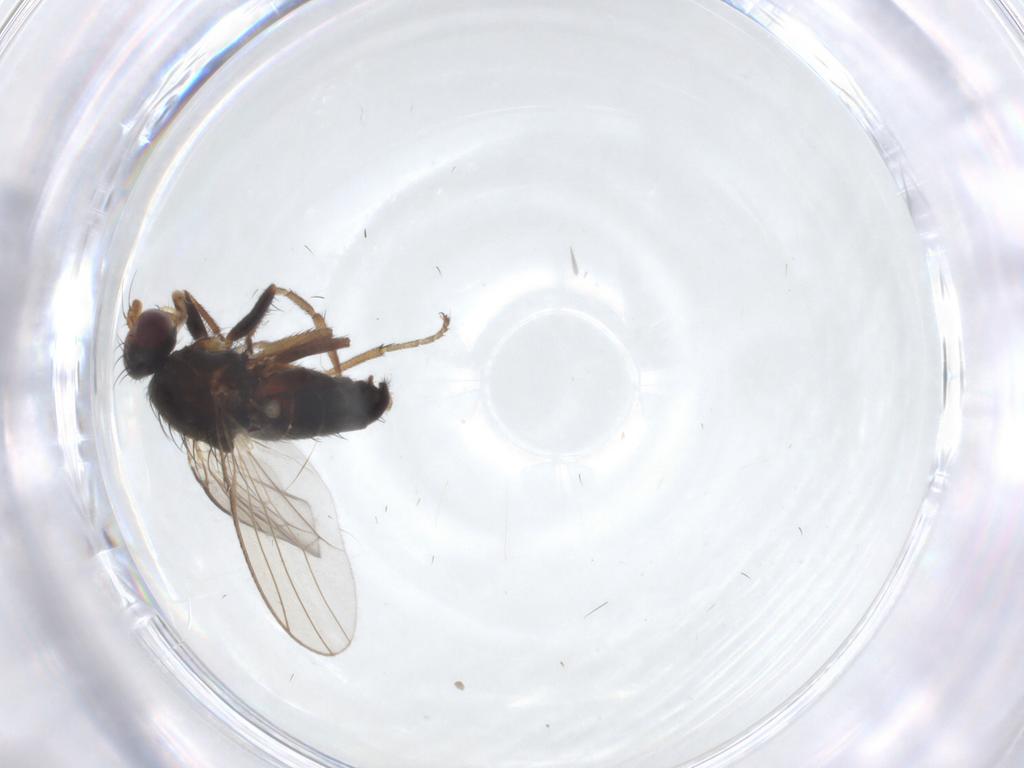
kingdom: Animalia
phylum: Arthropoda
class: Insecta
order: Diptera
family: Heleomyzidae
